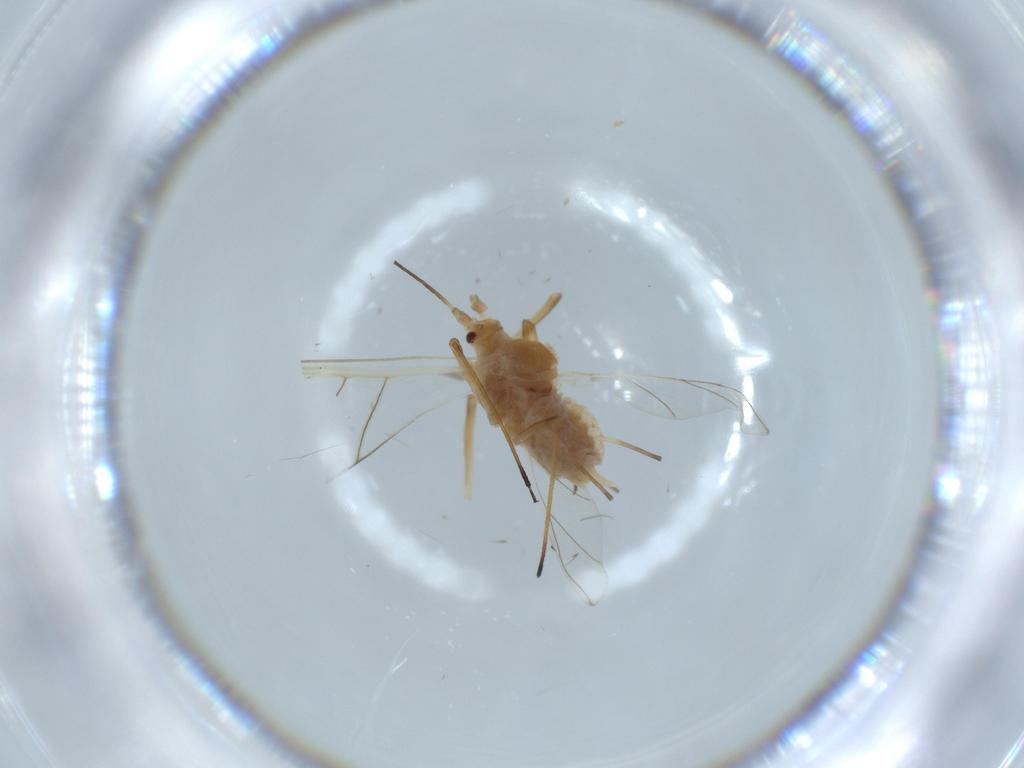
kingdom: Animalia
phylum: Arthropoda
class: Insecta
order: Hemiptera
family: Aphididae
